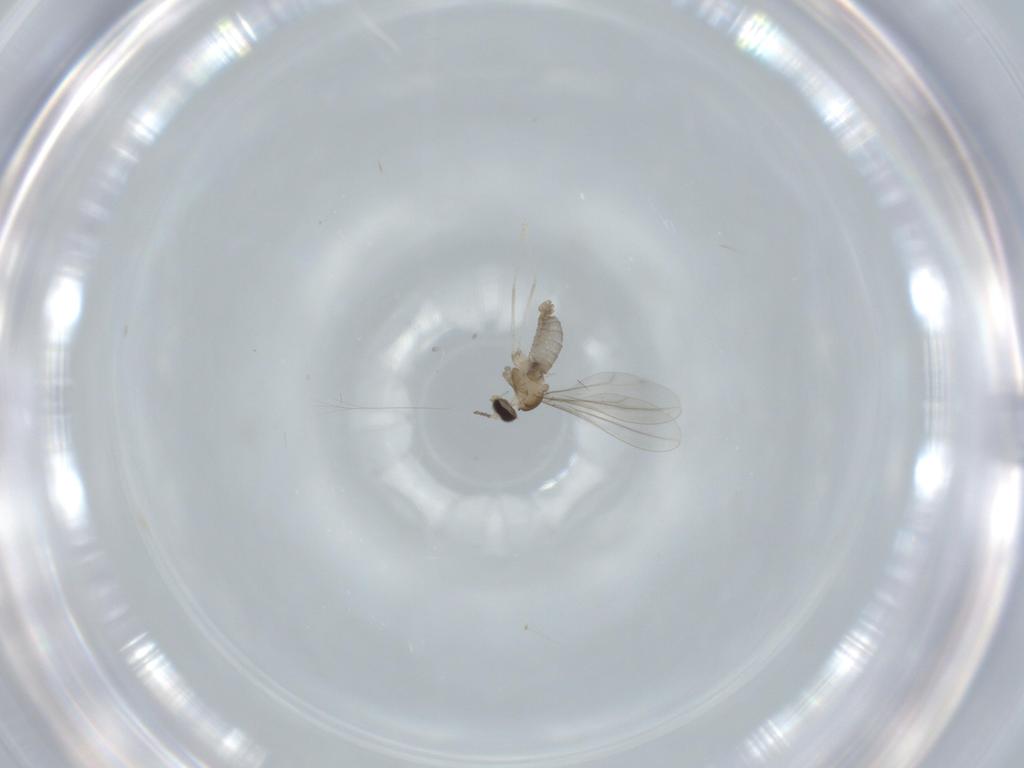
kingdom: Animalia
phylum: Arthropoda
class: Insecta
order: Diptera
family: Cecidomyiidae
